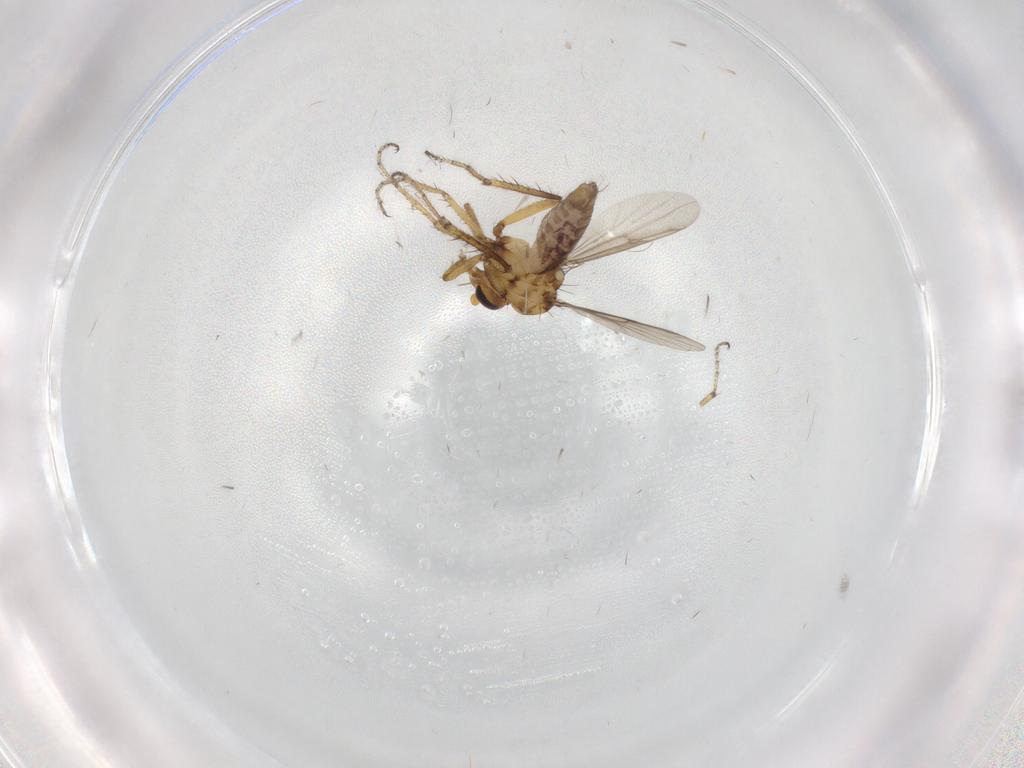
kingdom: Animalia
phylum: Arthropoda
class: Insecta
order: Diptera
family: Ceratopogonidae
